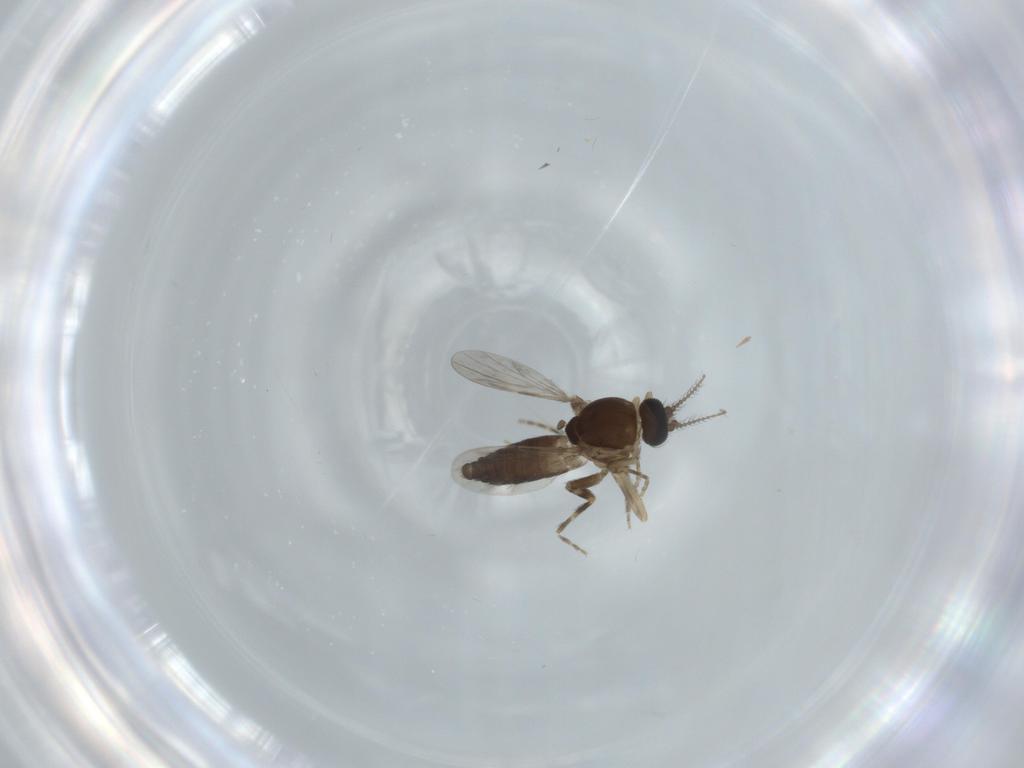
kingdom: Animalia
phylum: Arthropoda
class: Insecta
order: Diptera
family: Ceratopogonidae
